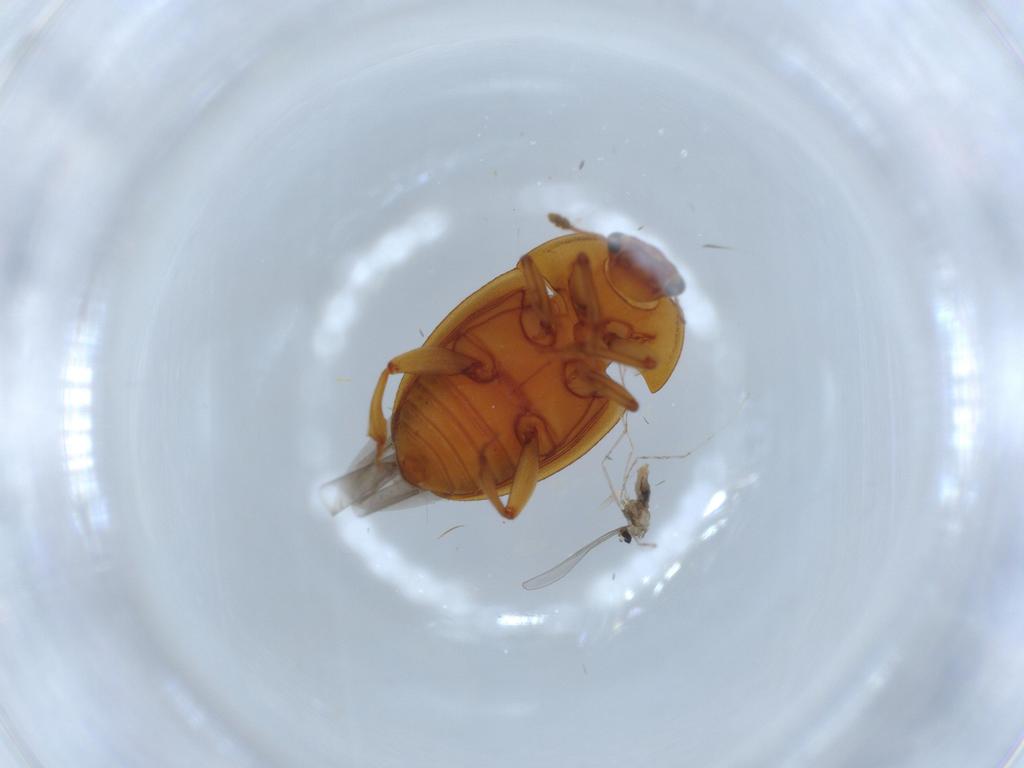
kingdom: Animalia
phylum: Arthropoda
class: Insecta
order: Coleoptera
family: Nitidulidae
